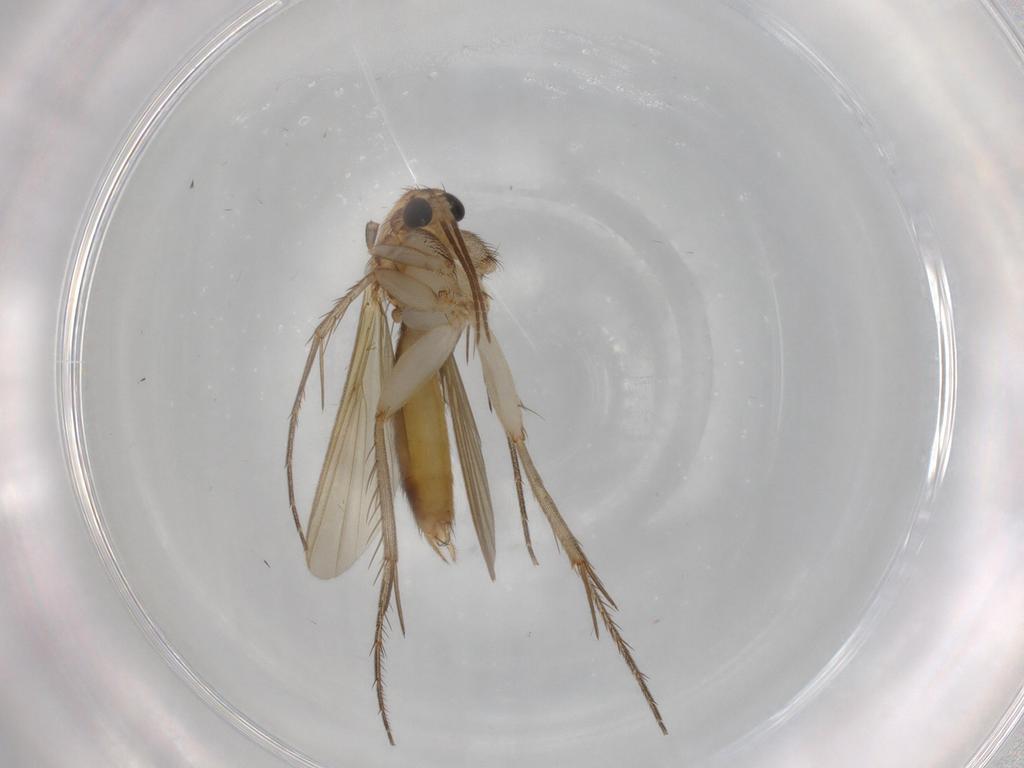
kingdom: Animalia
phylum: Arthropoda
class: Insecta
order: Diptera
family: Mycetophilidae
